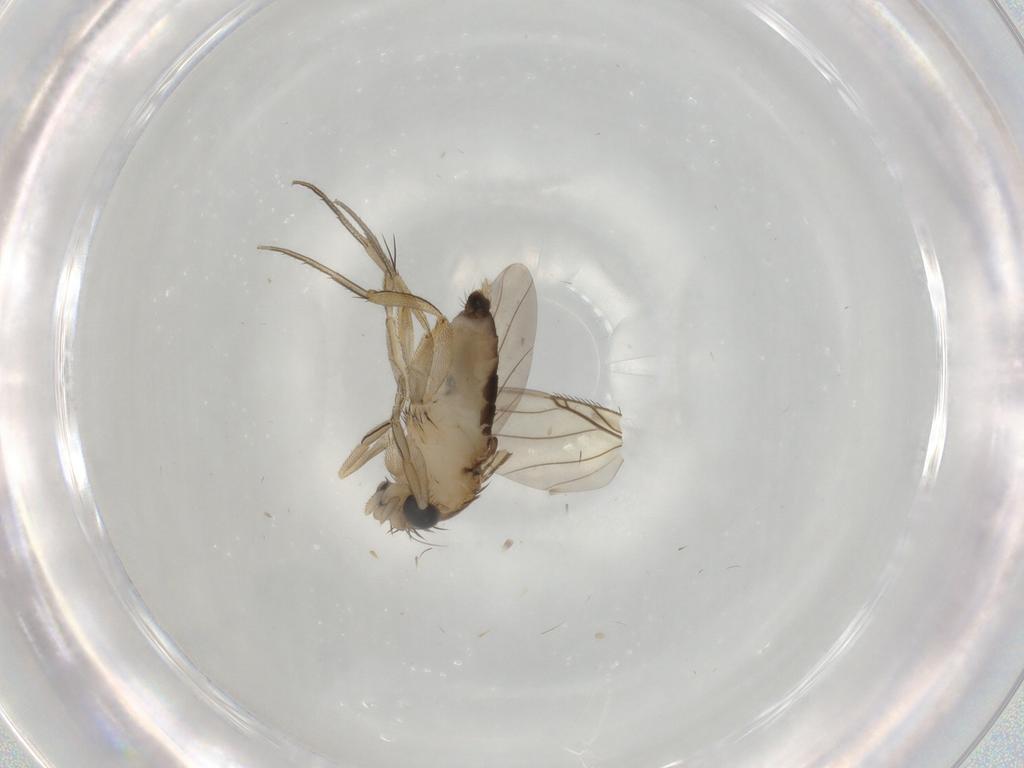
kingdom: Animalia
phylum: Arthropoda
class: Insecta
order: Diptera
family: Phoridae
